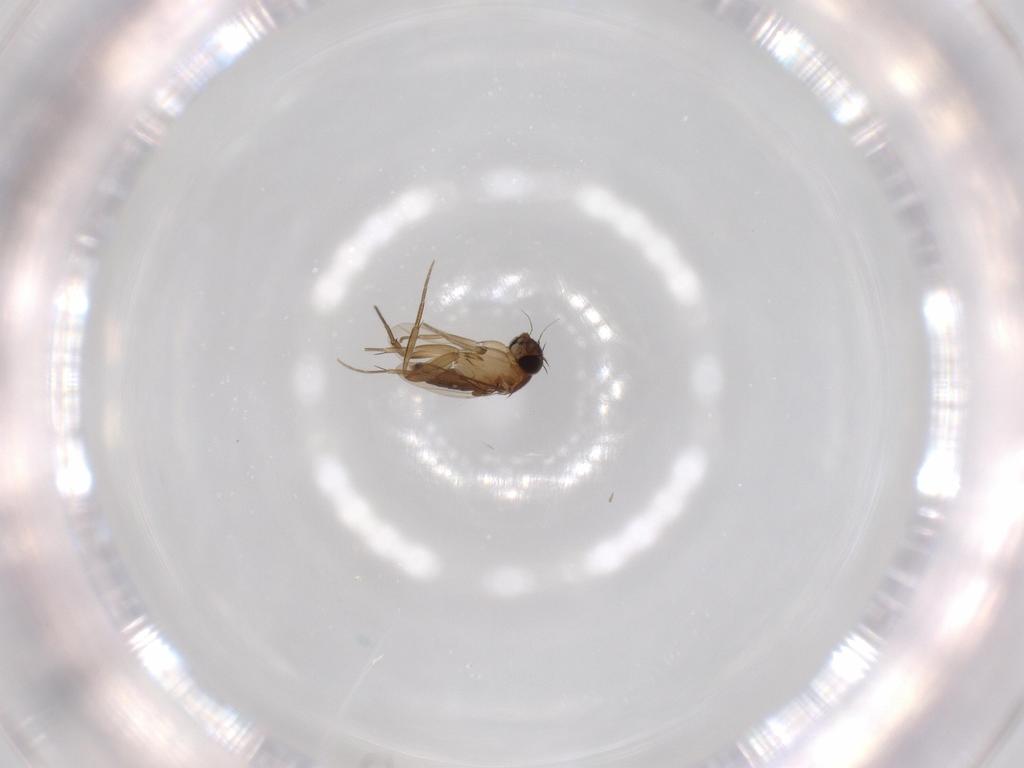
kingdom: Animalia
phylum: Arthropoda
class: Insecta
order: Diptera
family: Phoridae
